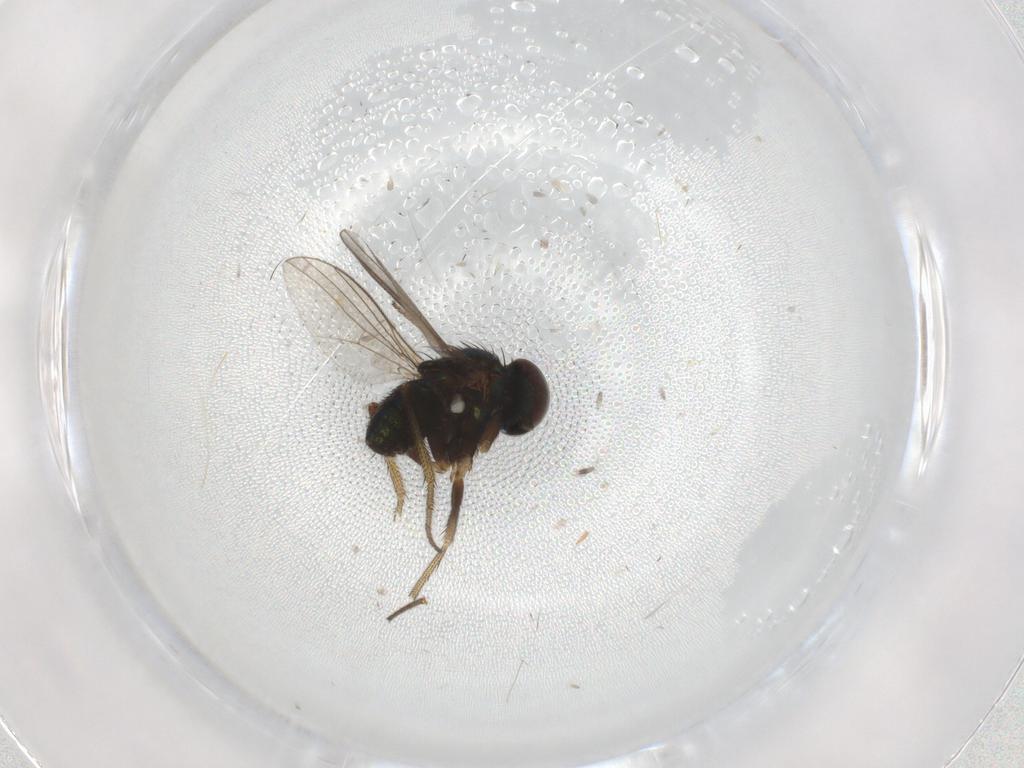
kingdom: Animalia
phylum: Arthropoda
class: Insecta
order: Diptera
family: Dolichopodidae
